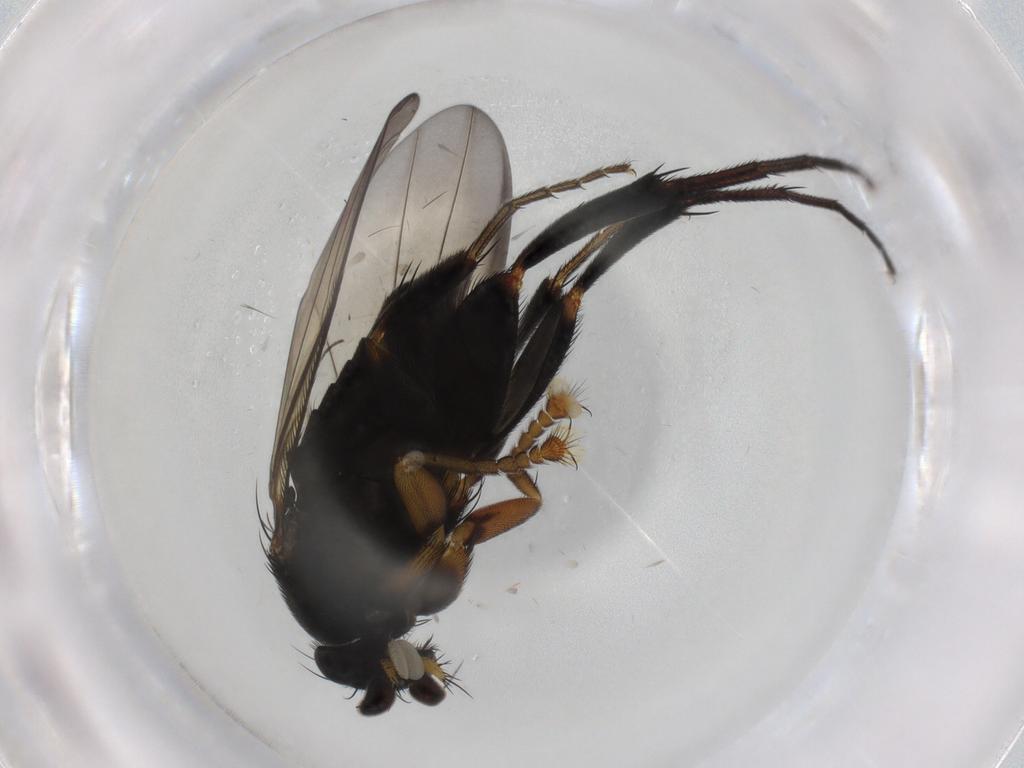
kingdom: Animalia
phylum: Arthropoda
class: Insecta
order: Diptera
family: Phoridae
